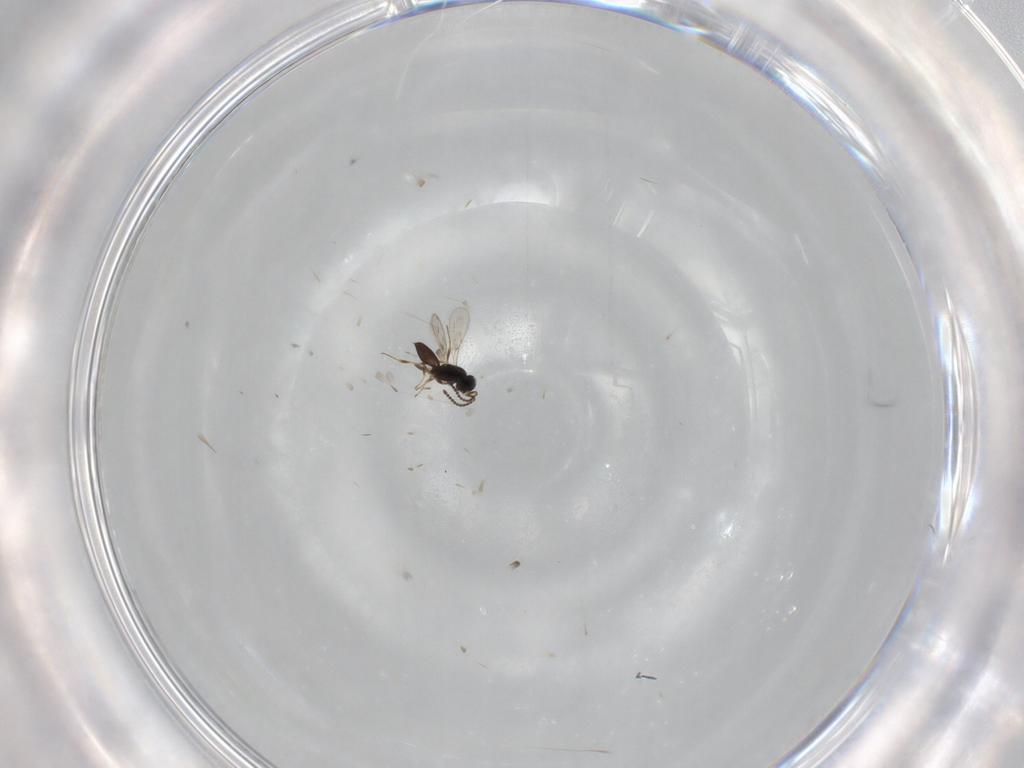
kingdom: Animalia
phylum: Arthropoda
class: Insecta
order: Hymenoptera
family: Scelionidae
